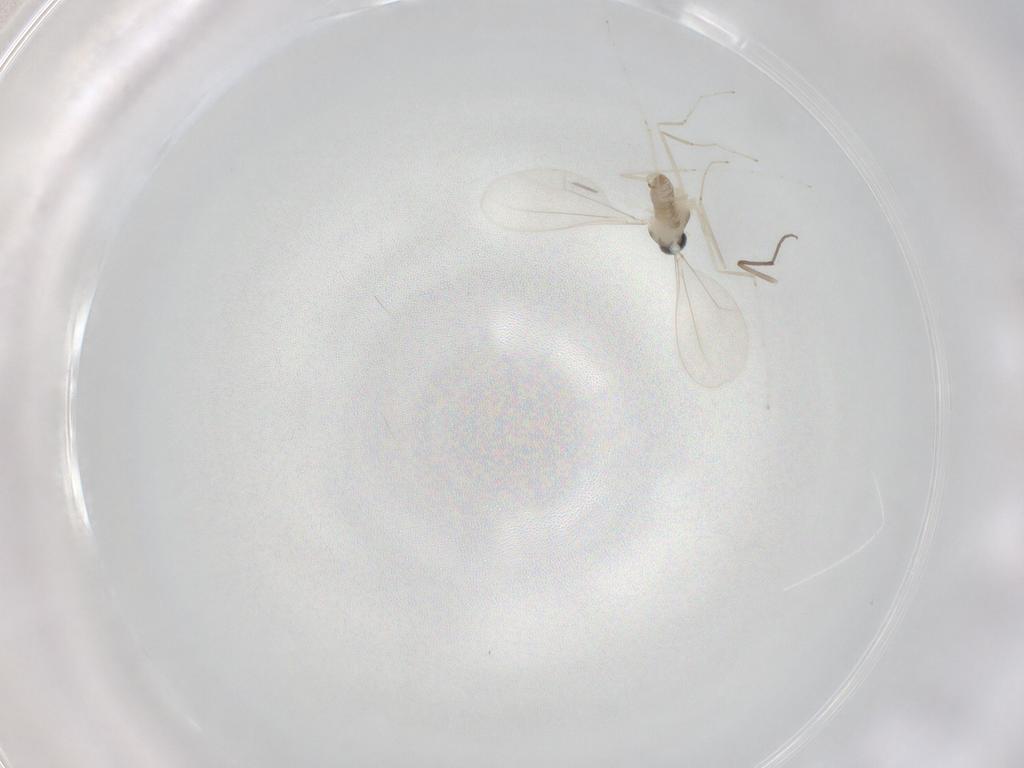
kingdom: Animalia
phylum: Arthropoda
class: Insecta
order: Diptera
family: Cecidomyiidae
